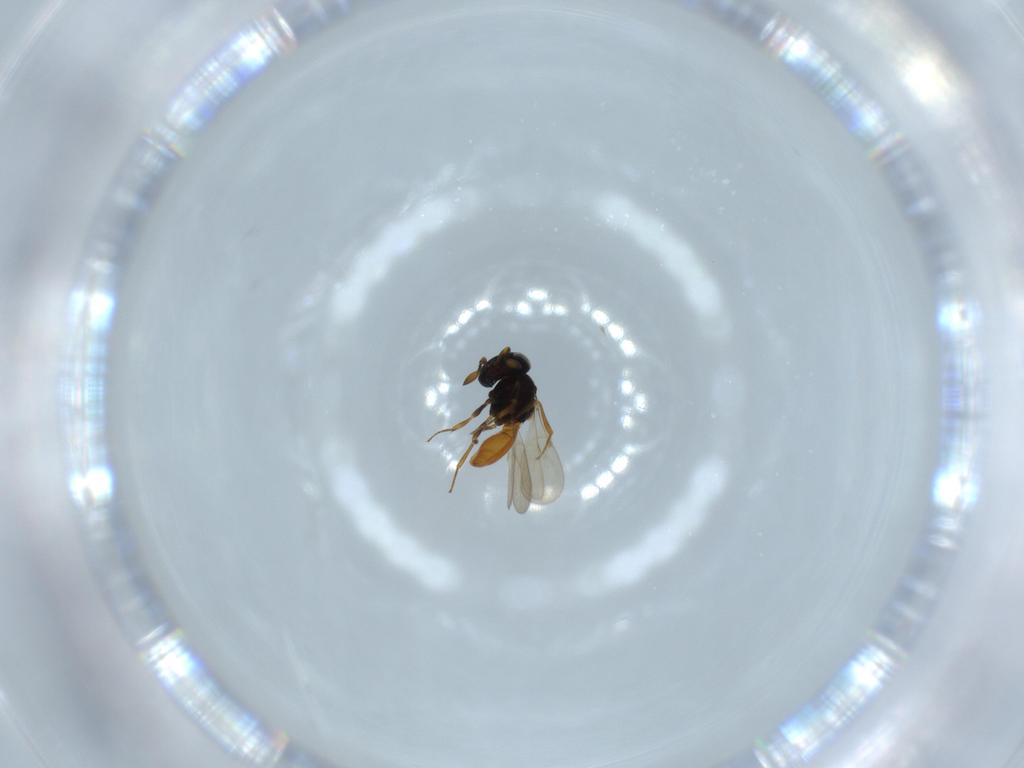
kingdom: Animalia
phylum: Arthropoda
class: Insecta
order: Hymenoptera
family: Scelionidae
